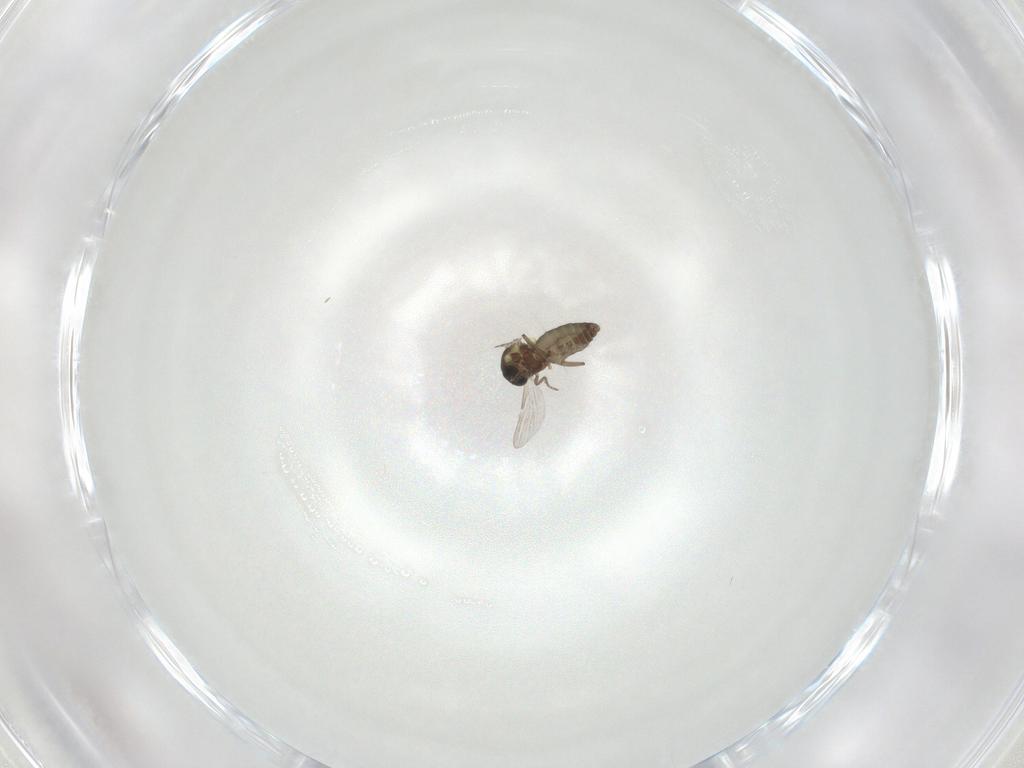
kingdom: Animalia
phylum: Arthropoda
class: Insecta
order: Diptera
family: Ceratopogonidae
